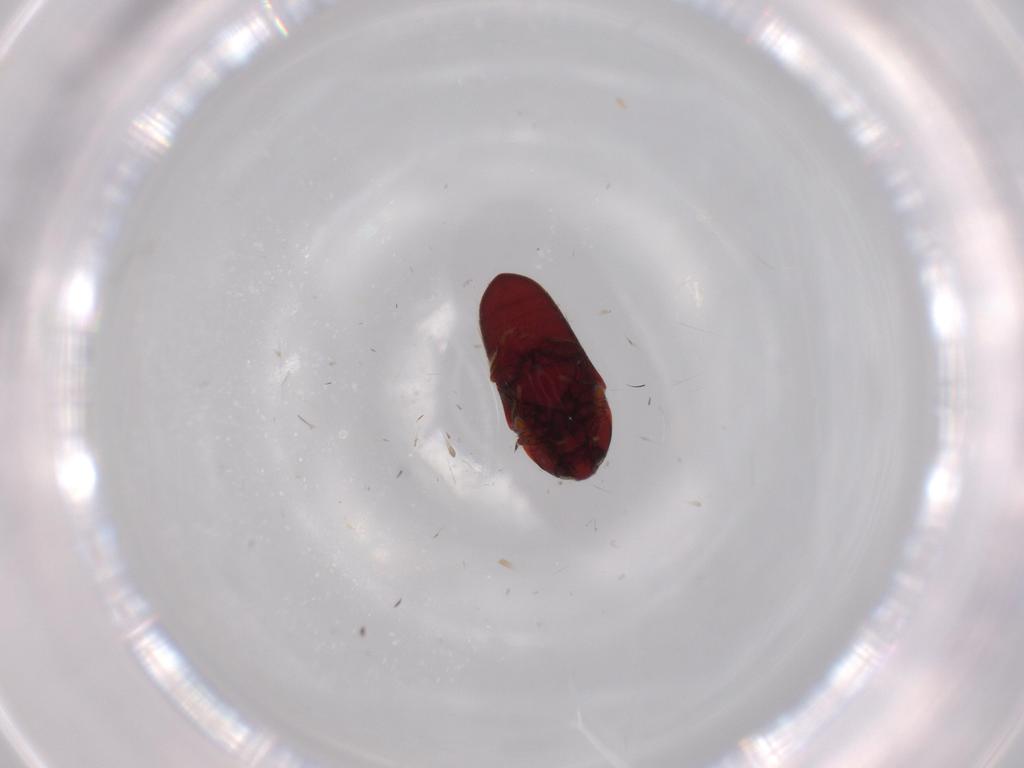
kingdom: Animalia
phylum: Arthropoda
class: Insecta
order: Coleoptera
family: Throscidae
